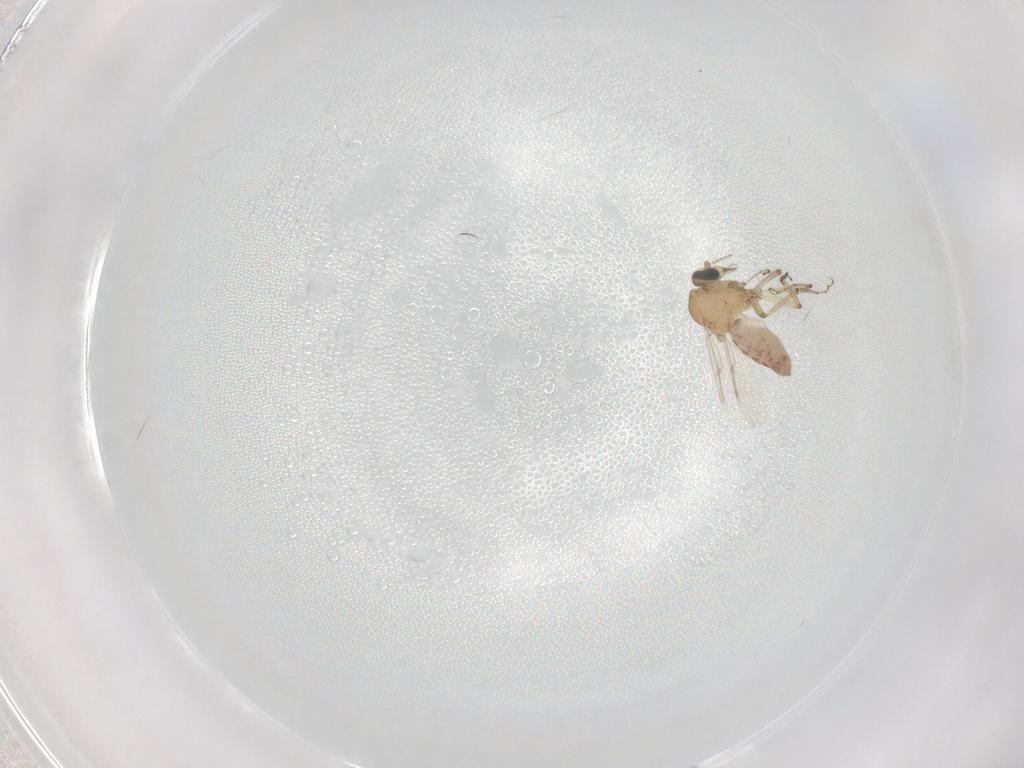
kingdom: Animalia
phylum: Arthropoda
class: Insecta
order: Diptera
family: Ceratopogonidae
